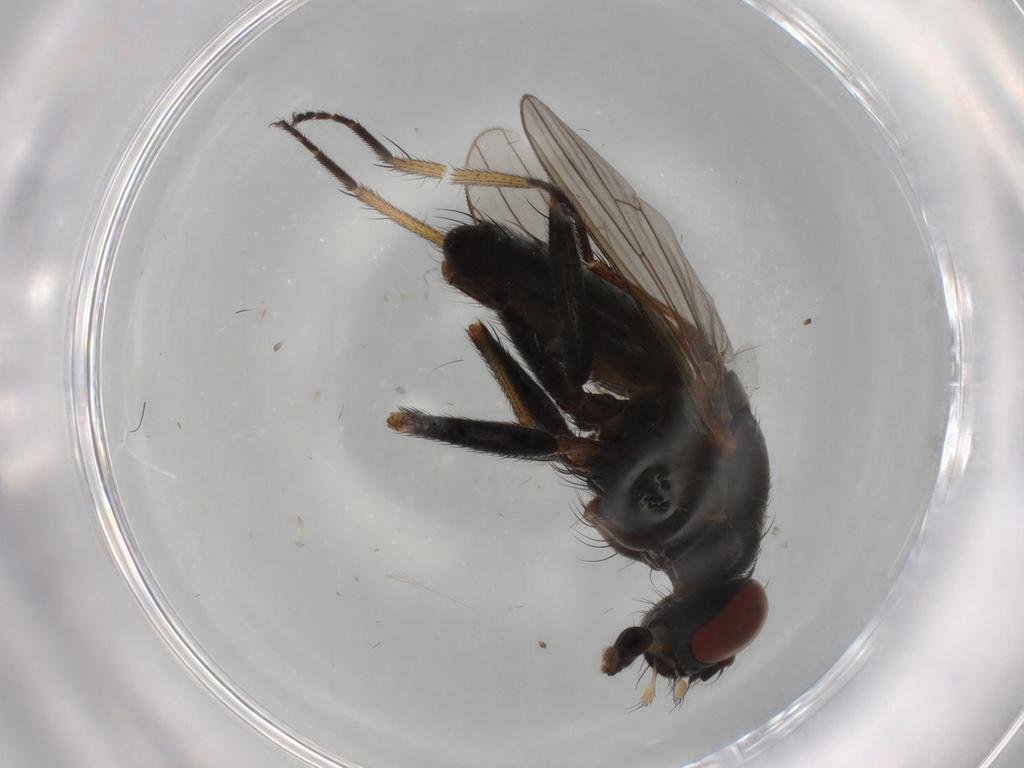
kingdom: Animalia
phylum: Arthropoda
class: Insecta
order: Diptera
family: Muscidae
